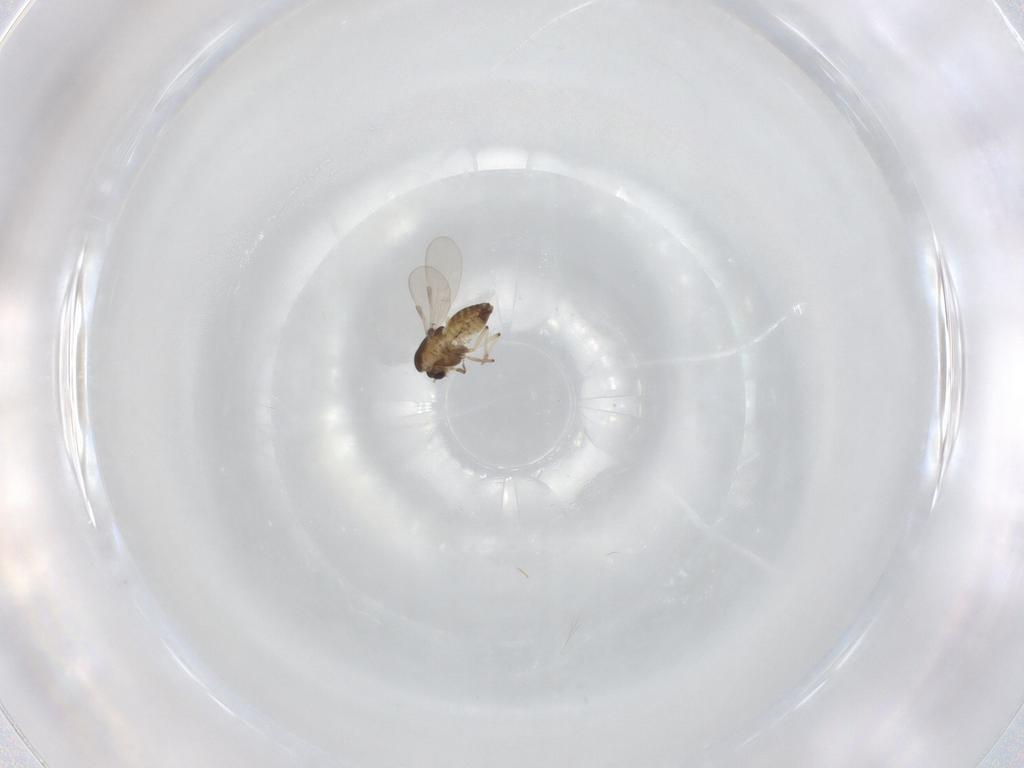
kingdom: Animalia
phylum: Arthropoda
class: Insecta
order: Diptera
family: Chironomidae
